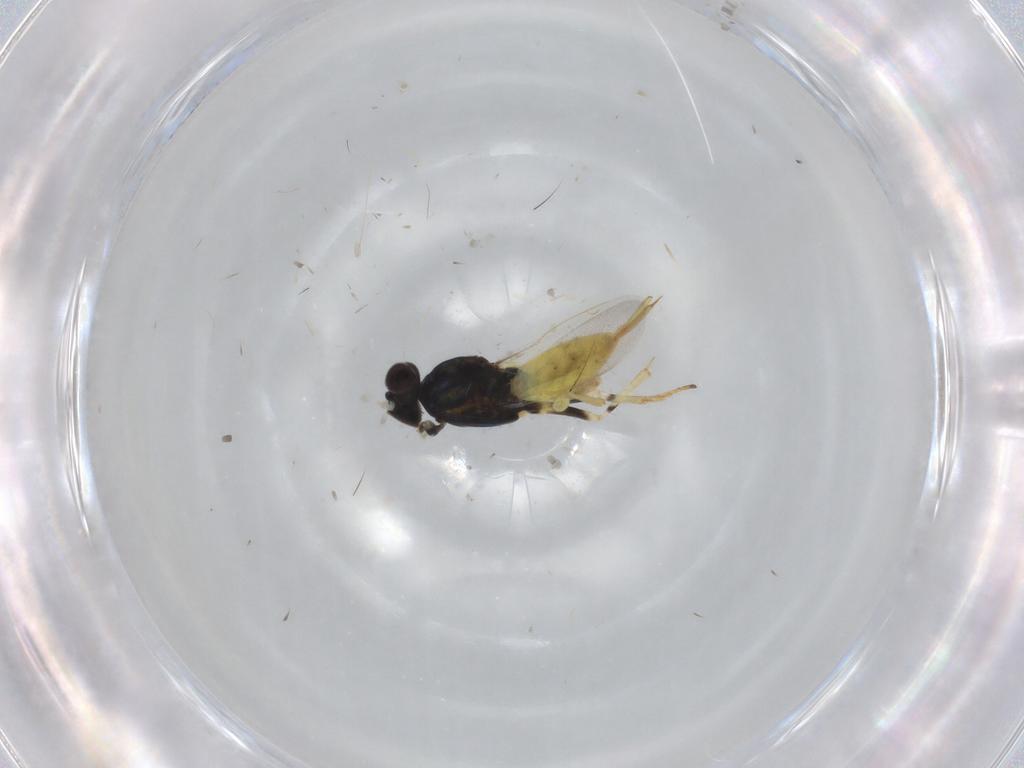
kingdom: Animalia
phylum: Arthropoda
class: Insecta
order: Hymenoptera
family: Eupelmidae
